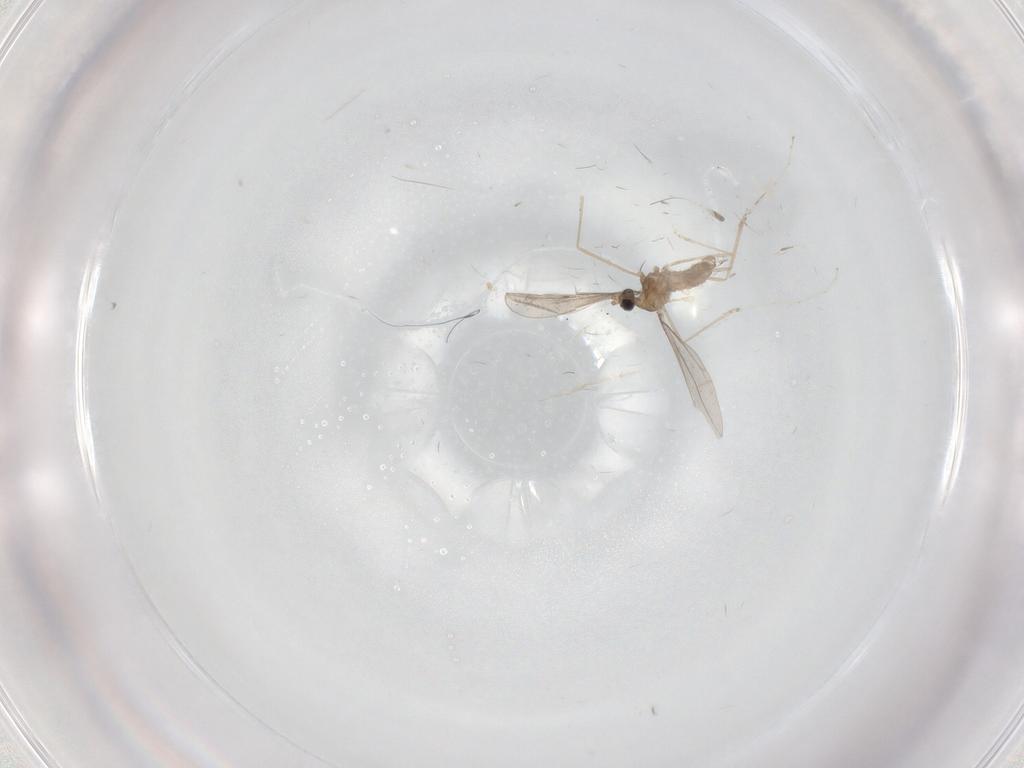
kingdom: Animalia
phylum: Arthropoda
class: Insecta
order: Diptera
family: Cecidomyiidae
